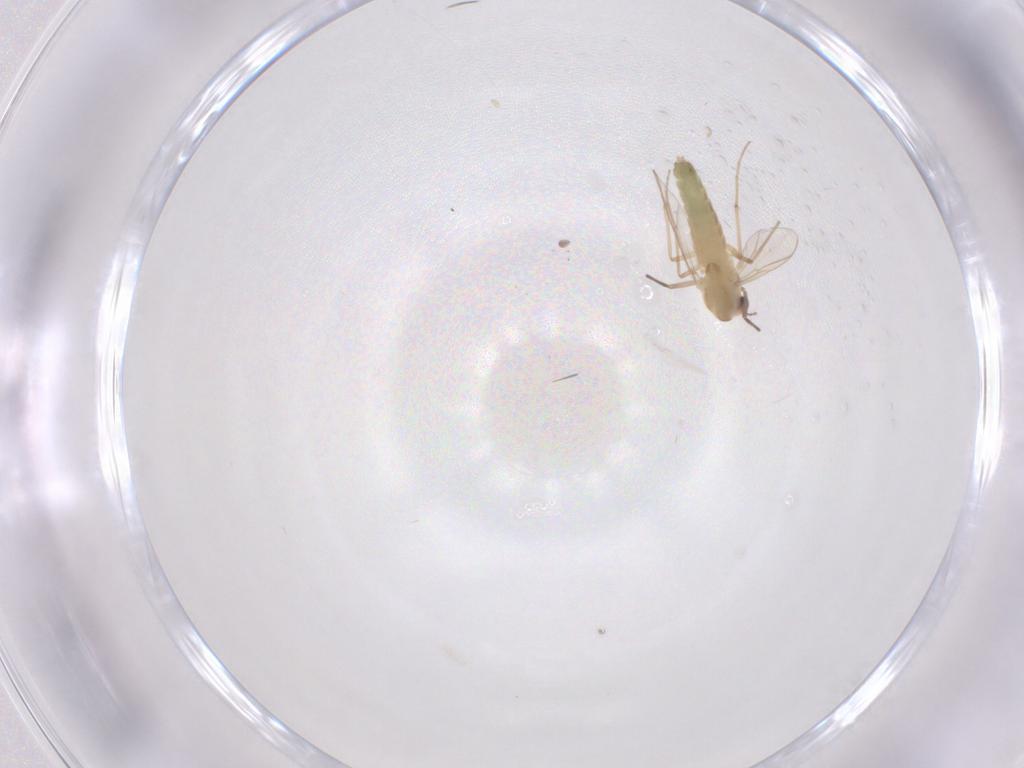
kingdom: Animalia
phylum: Arthropoda
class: Insecta
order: Diptera
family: Chironomidae
